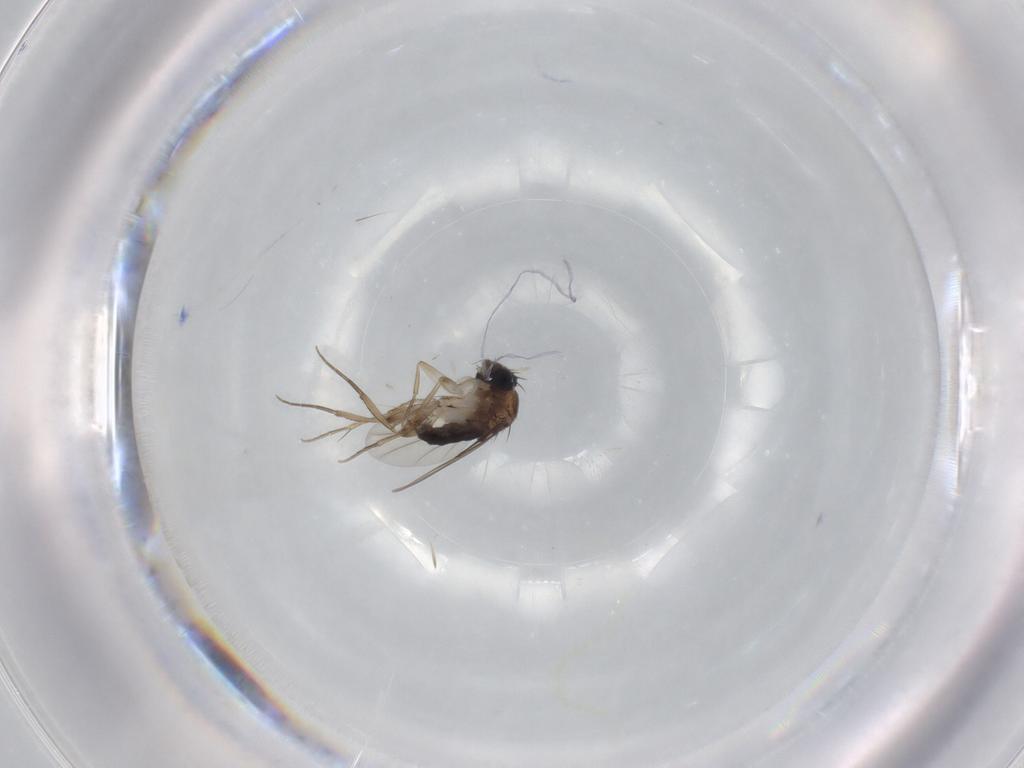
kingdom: Animalia
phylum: Arthropoda
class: Insecta
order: Diptera
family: Phoridae
